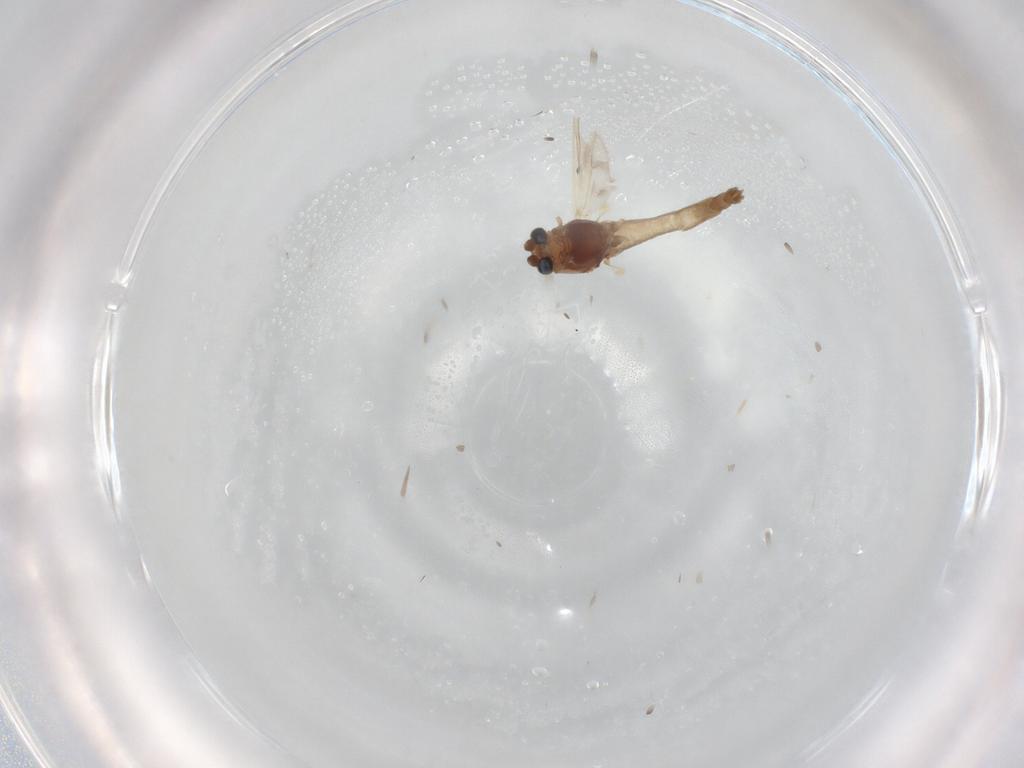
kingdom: Animalia
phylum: Arthropoda
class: Insecta
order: Diptera
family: Chironomidae
